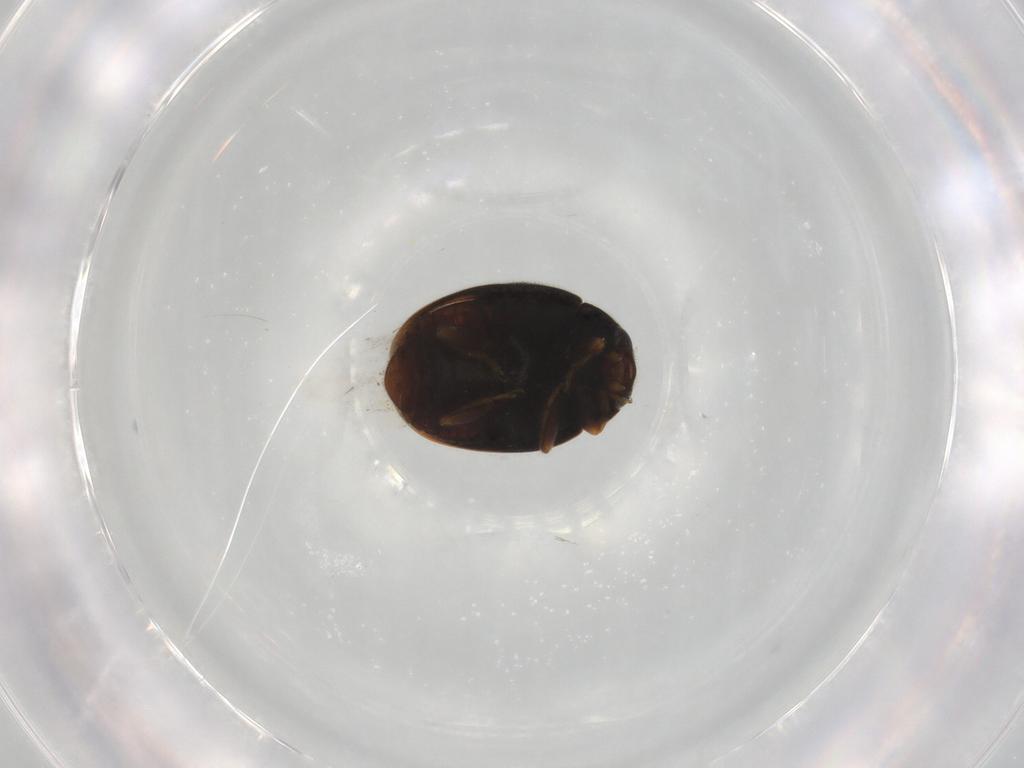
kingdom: Animalia
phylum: Arthropoda
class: Insecta
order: Coleoptera
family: Coccinellidae
